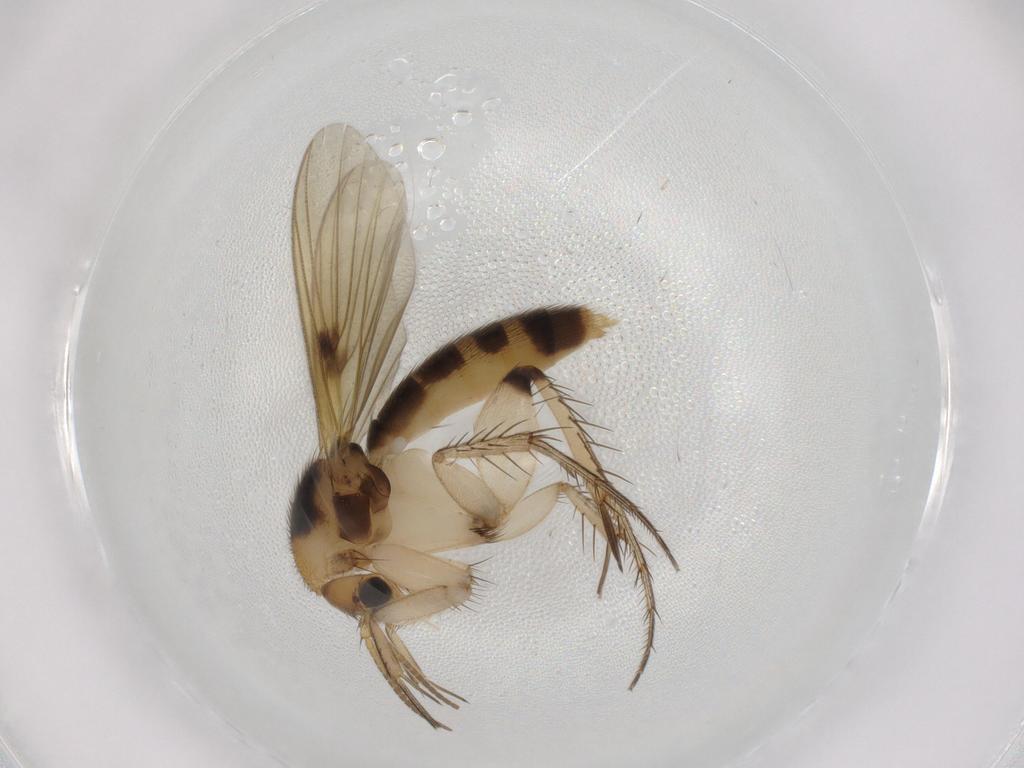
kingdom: Animalia
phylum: Arthropoda
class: Insecta
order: Diptera
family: Mycetophilidae
